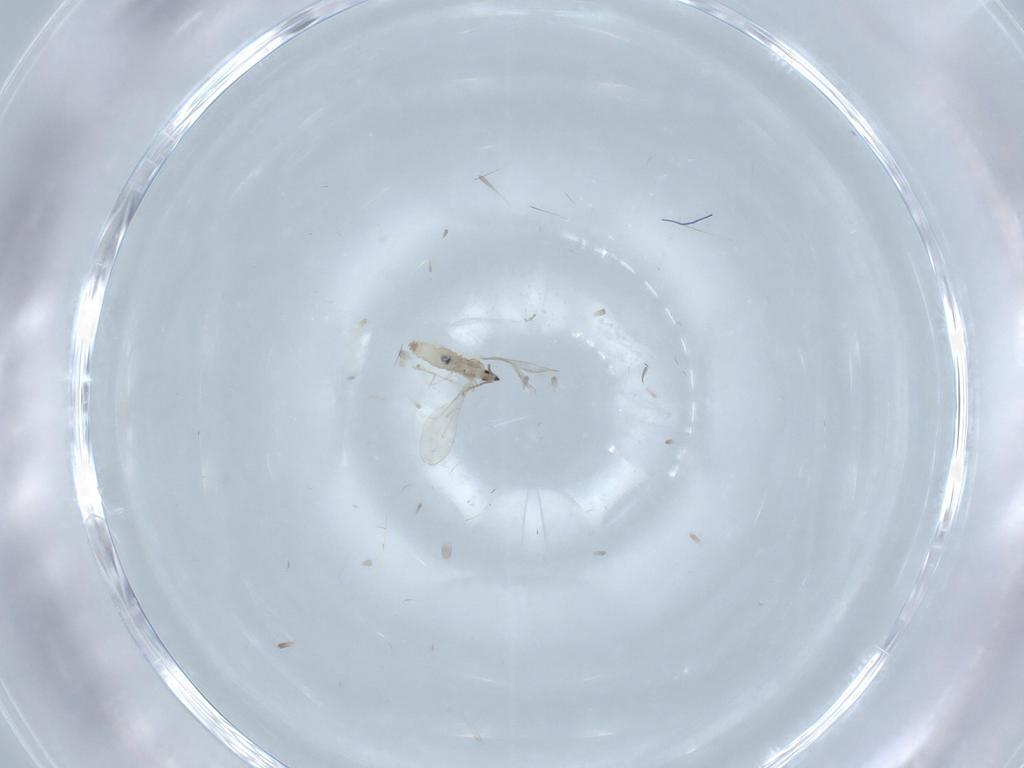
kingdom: Animalia
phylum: Arthropoda
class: Insecta
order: Diptera
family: Cecidomyiidae
